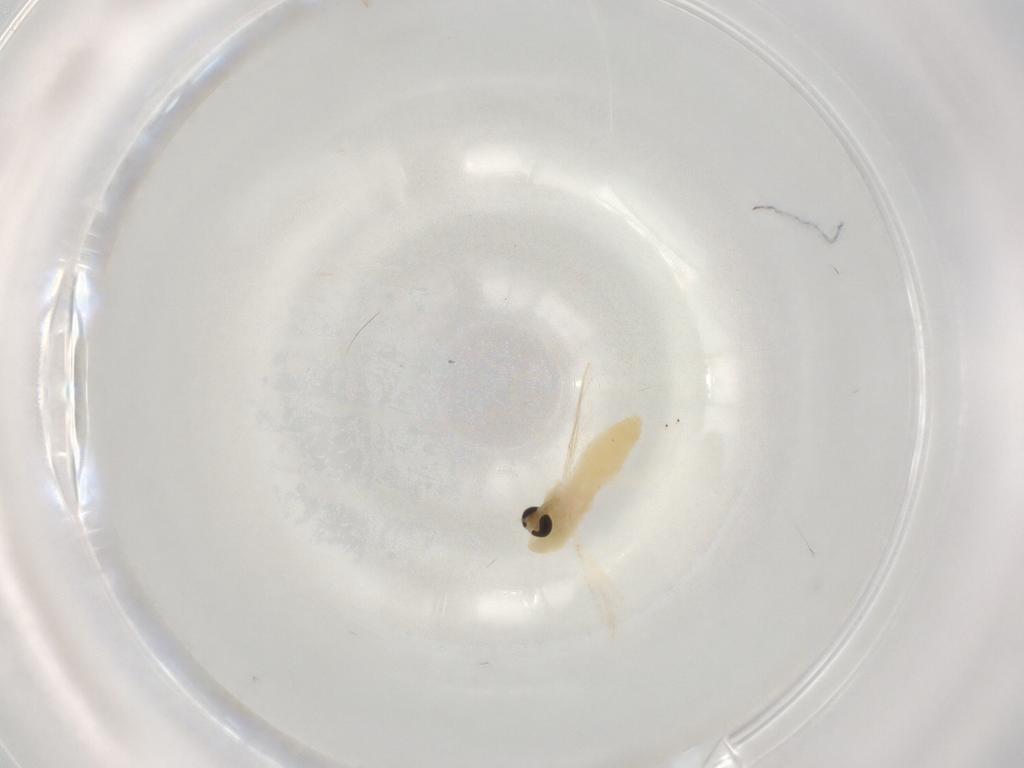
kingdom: Animalia
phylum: Arthropoda
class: Insecta
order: Diptera
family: Chironomidae
